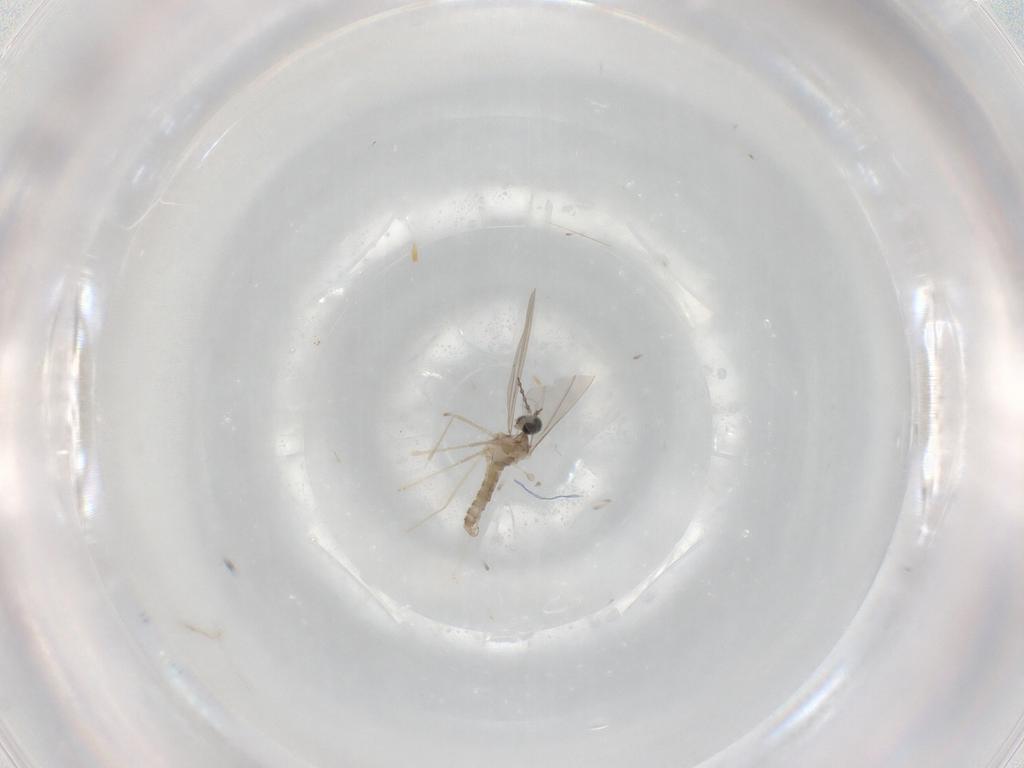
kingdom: Animalia
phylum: Arthropoda
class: Insecta
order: Diptera
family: Cecidomyiidae
